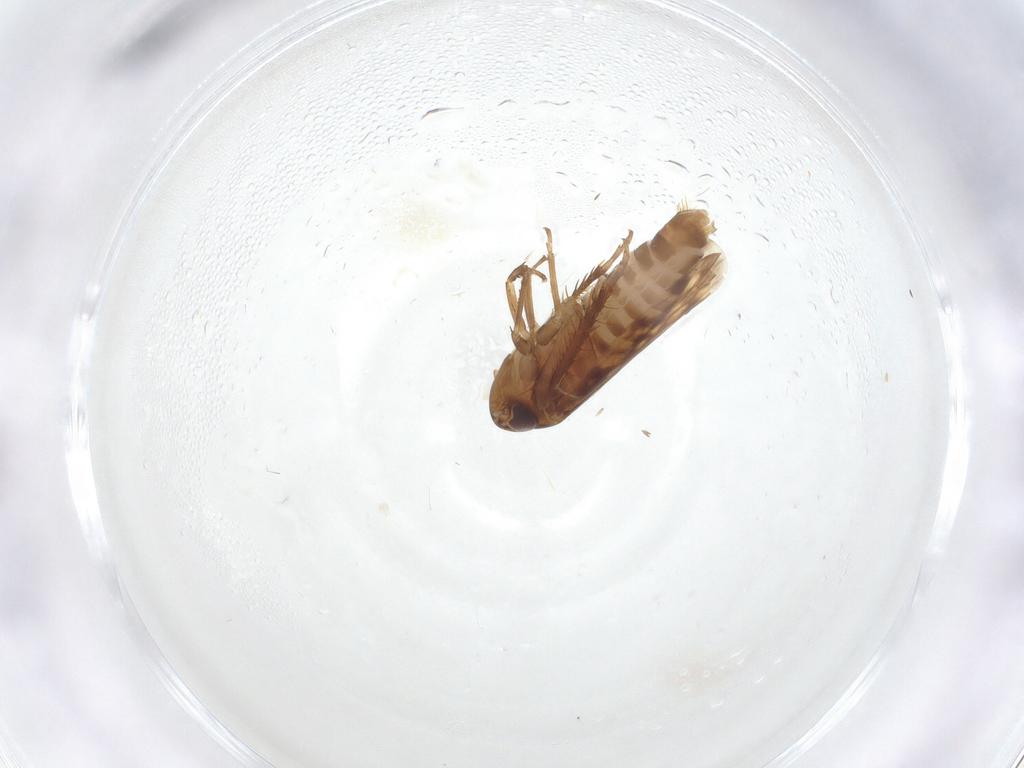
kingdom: Animalia
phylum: Arthropoda
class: Insecta
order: Hemiptera
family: Cicadellidae
